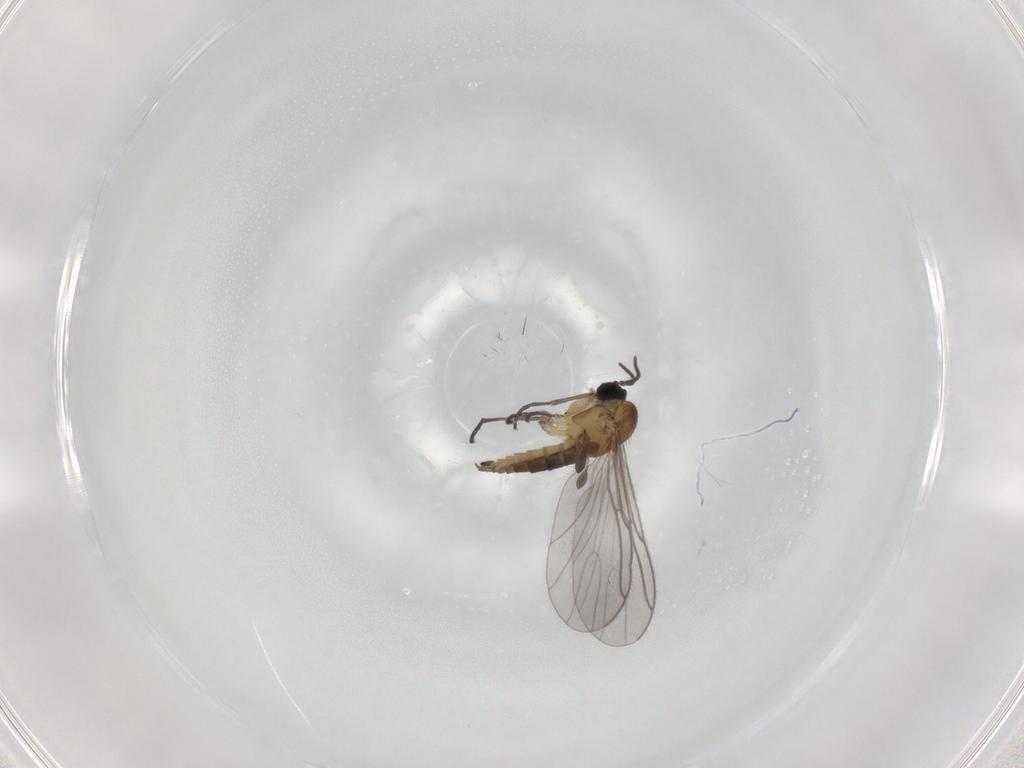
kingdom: Animalia
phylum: Arthropoda
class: Insecta
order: Diptera
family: Sciaridae
